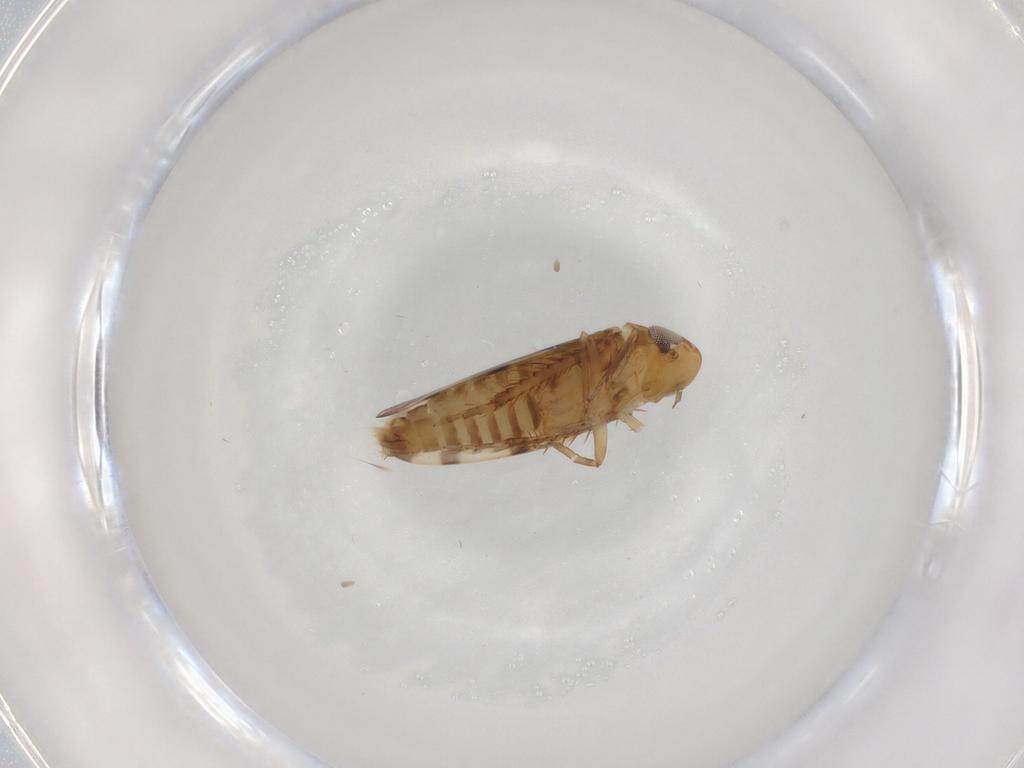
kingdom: Animalia
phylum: Arthropoda
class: Insecta
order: Hemiptera
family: Cicadellidae
